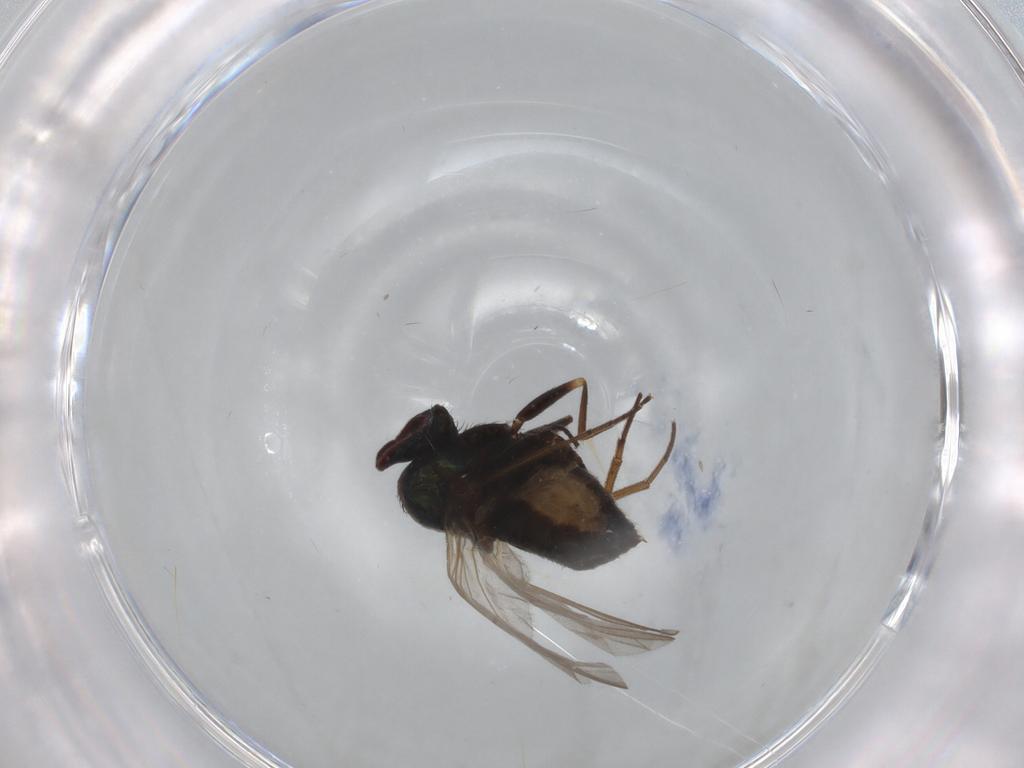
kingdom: Animalia
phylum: Arthropoda
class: Insecta
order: Diptera
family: Dolichopodidae
